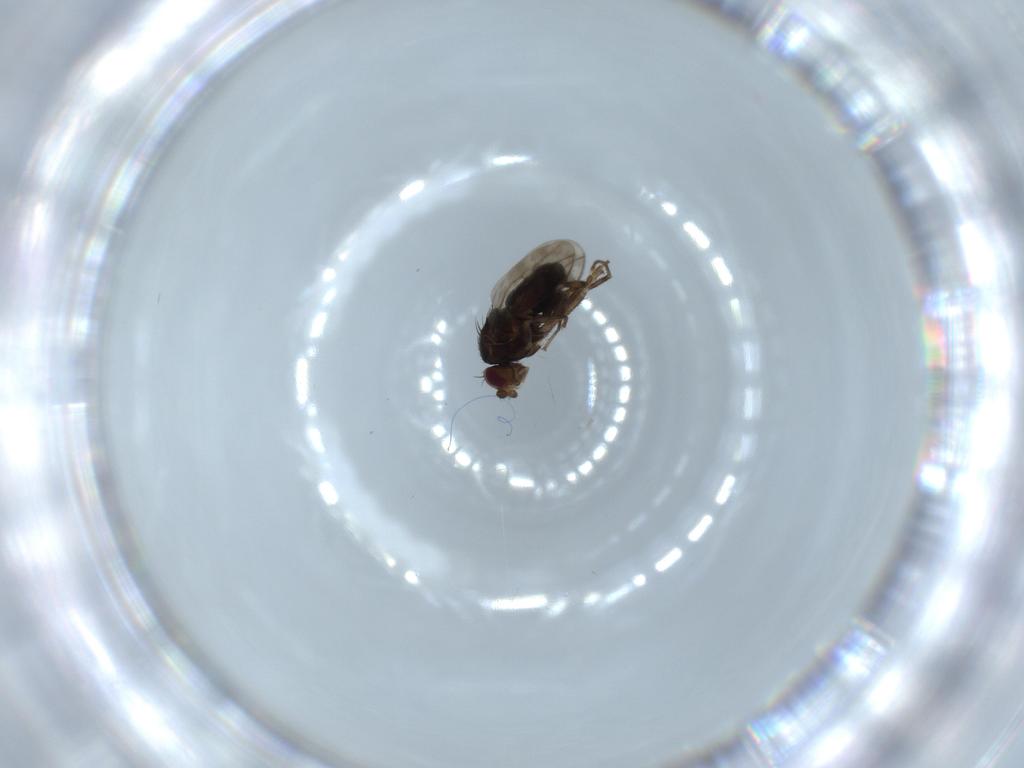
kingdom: Animalia
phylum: Arthropoda
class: Insecta
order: Diptera
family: Sphaeroceridae
